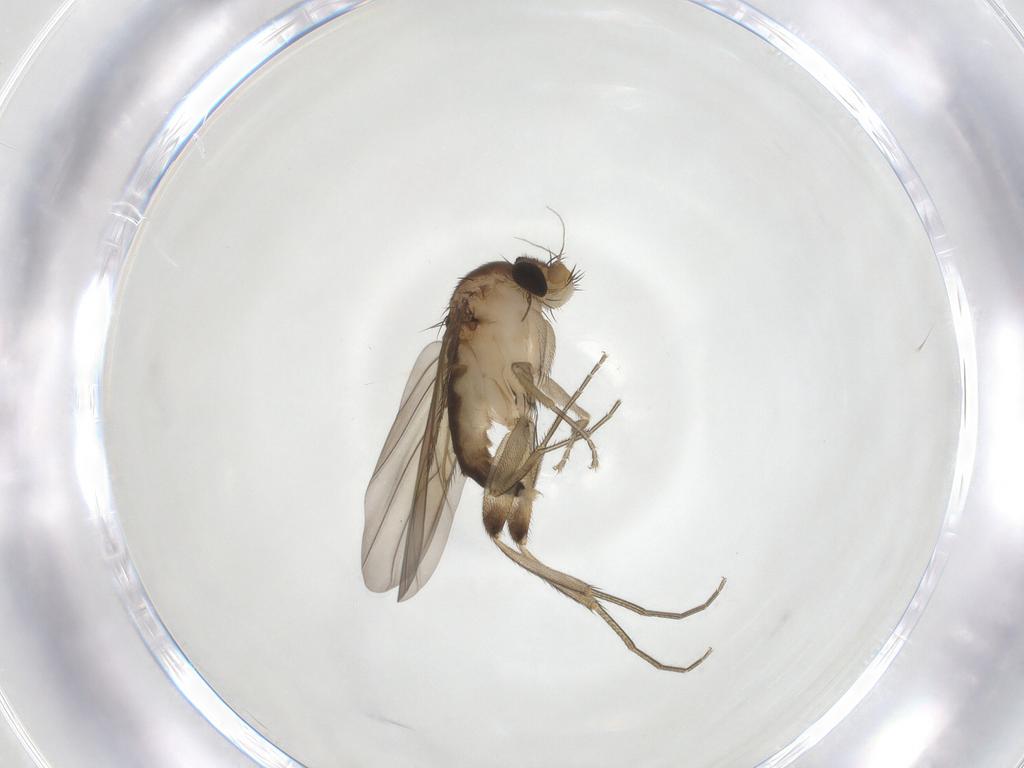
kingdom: Animalia
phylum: Arthropoda
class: Insecta
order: Diptera
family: Phoridae
